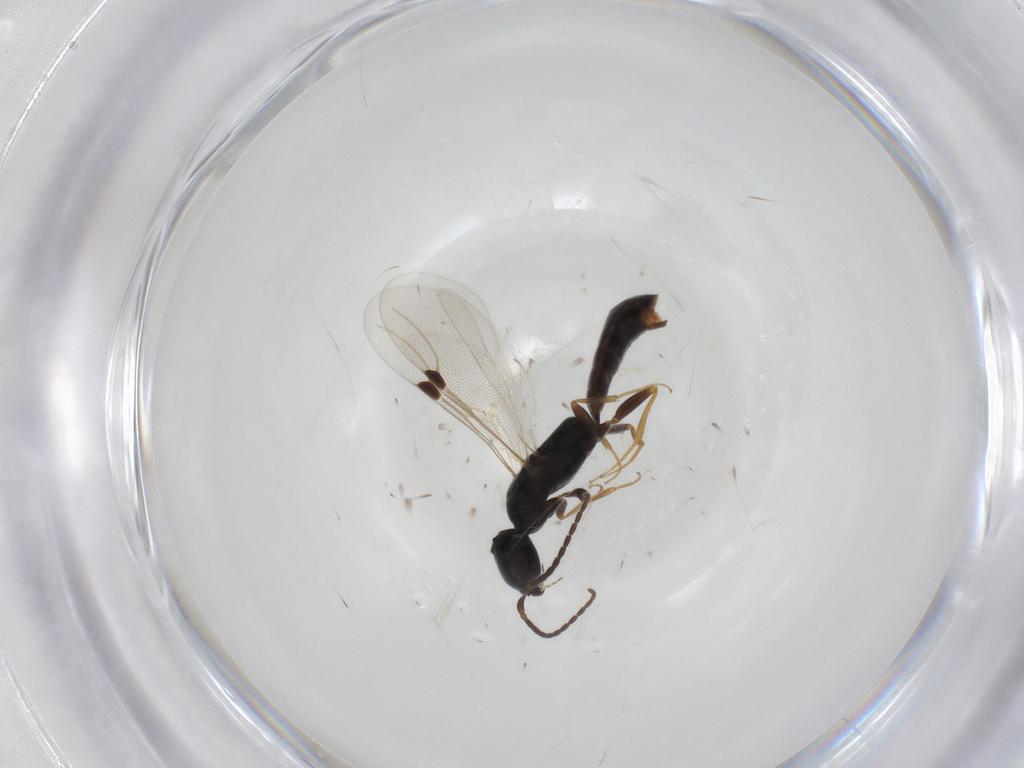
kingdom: Animalia
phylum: Arthropoda
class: Insecta
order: Hymenoptera
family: Bethylidae
